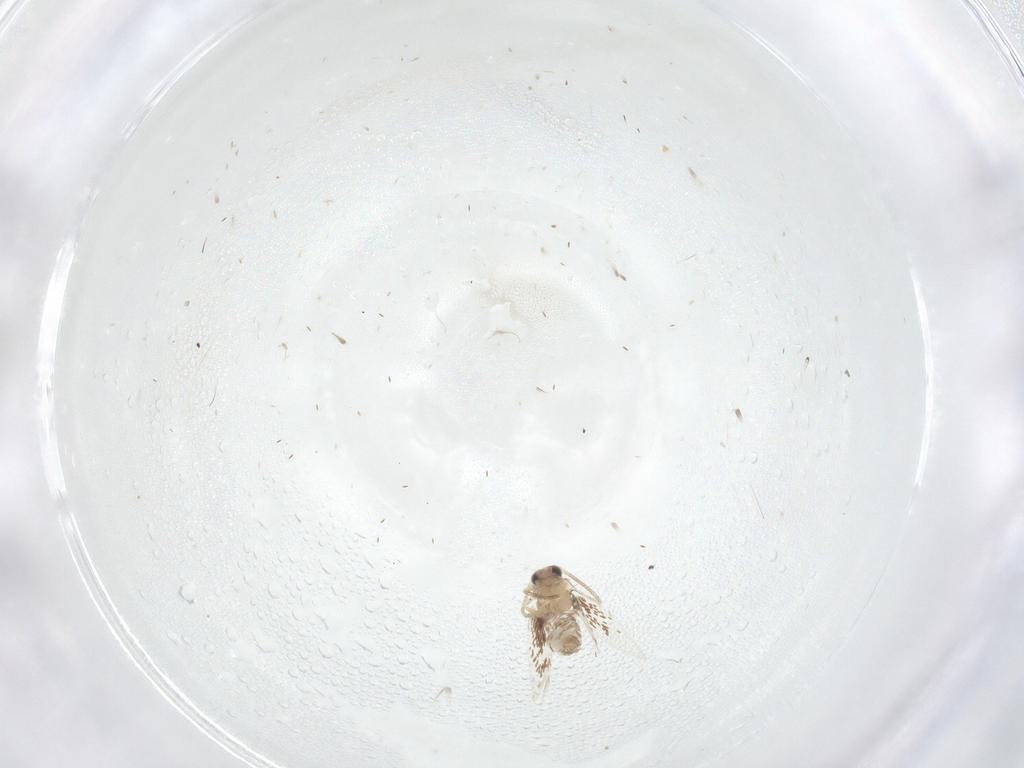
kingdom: Animalia
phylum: Arthropoda
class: Insecta
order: Lepidoptera
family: Nepticulidae
